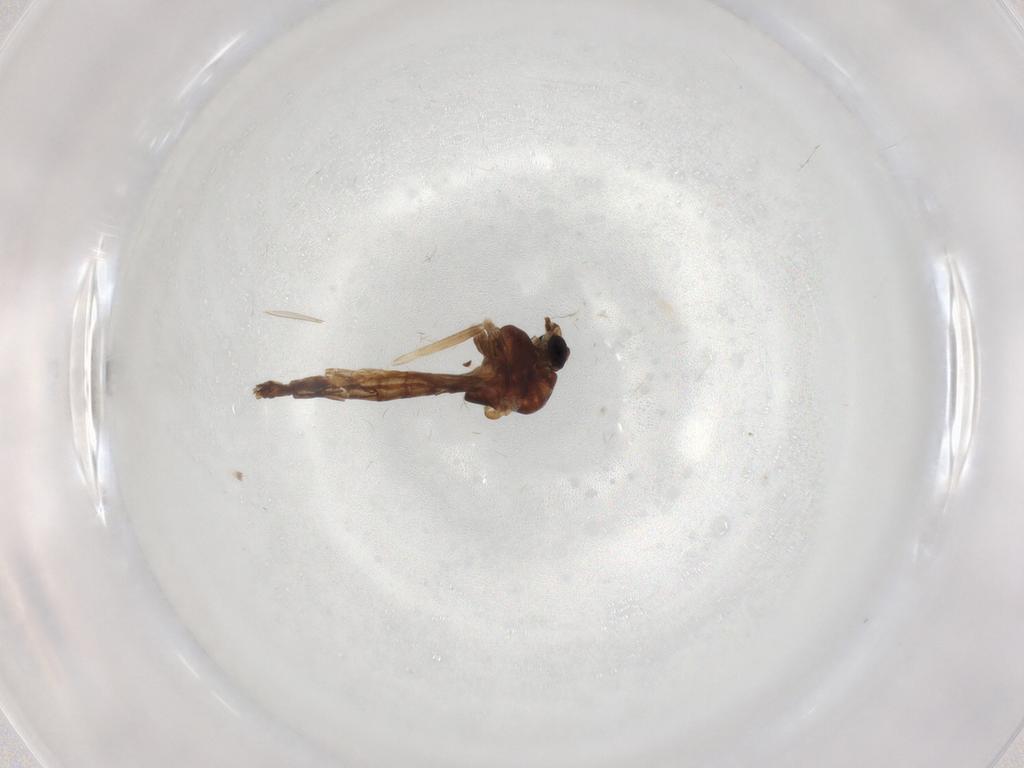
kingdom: Animalia
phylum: Arthropoda
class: Insecta
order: Diptera
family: Chironomidae
